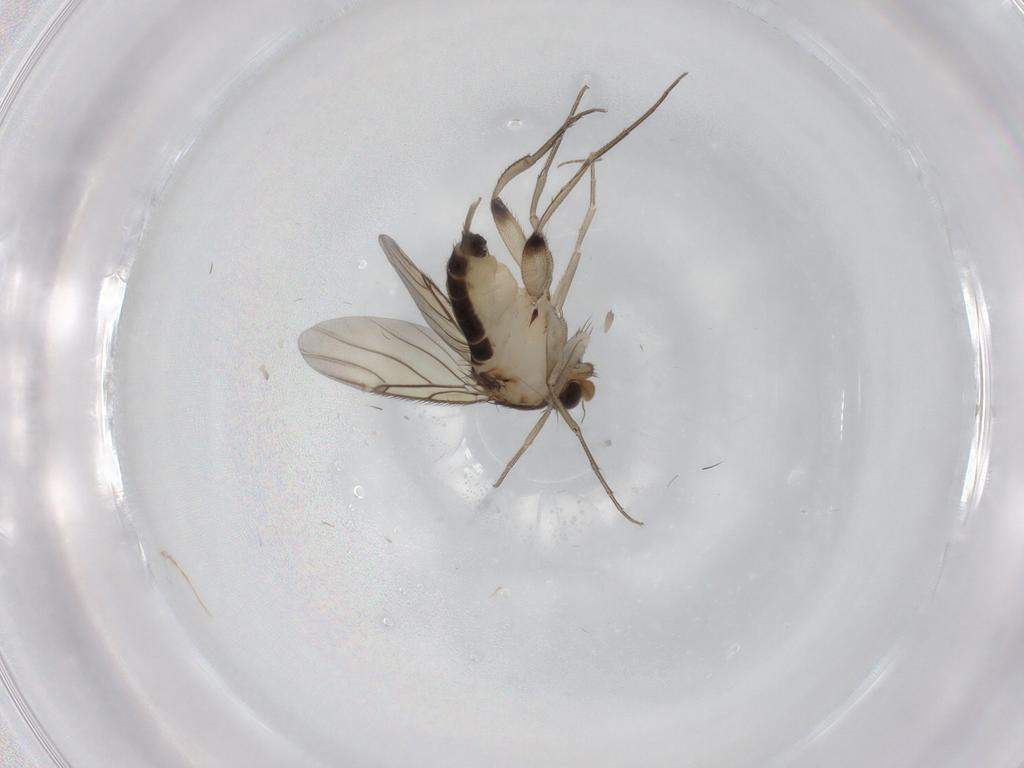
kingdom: Animalia
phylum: Arthropoda
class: Insecta
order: Diptera
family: Phoridae
